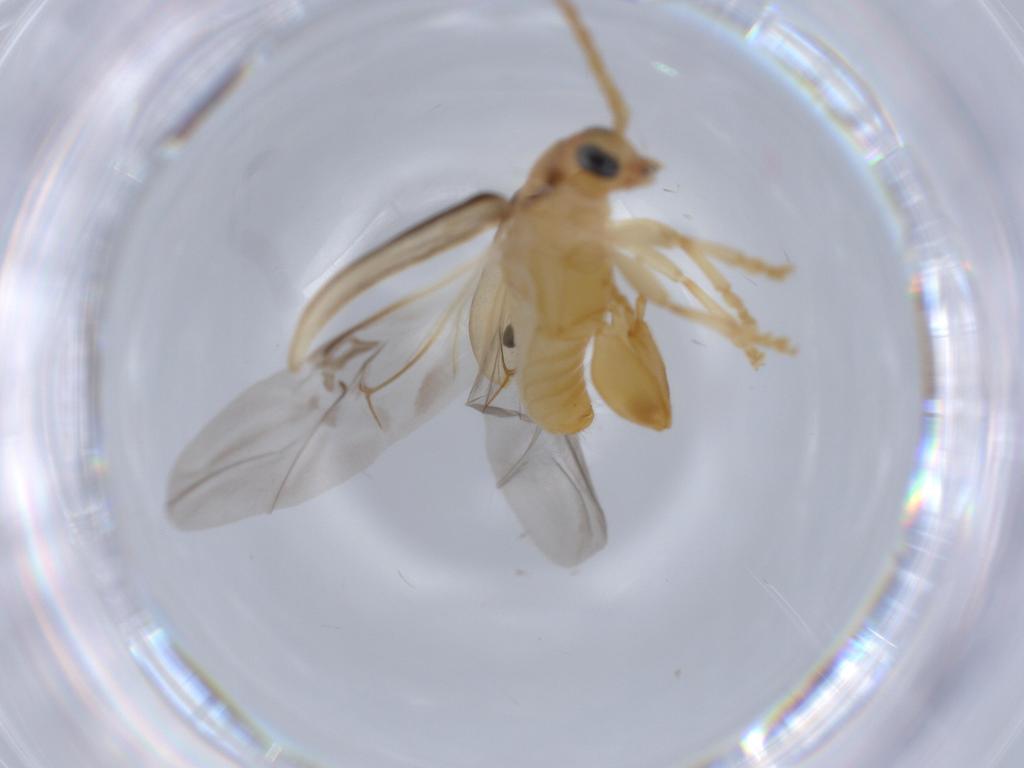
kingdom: Animalia
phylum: Arthropoda
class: Insecta
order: Coleoptera
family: Chrysomelidae
